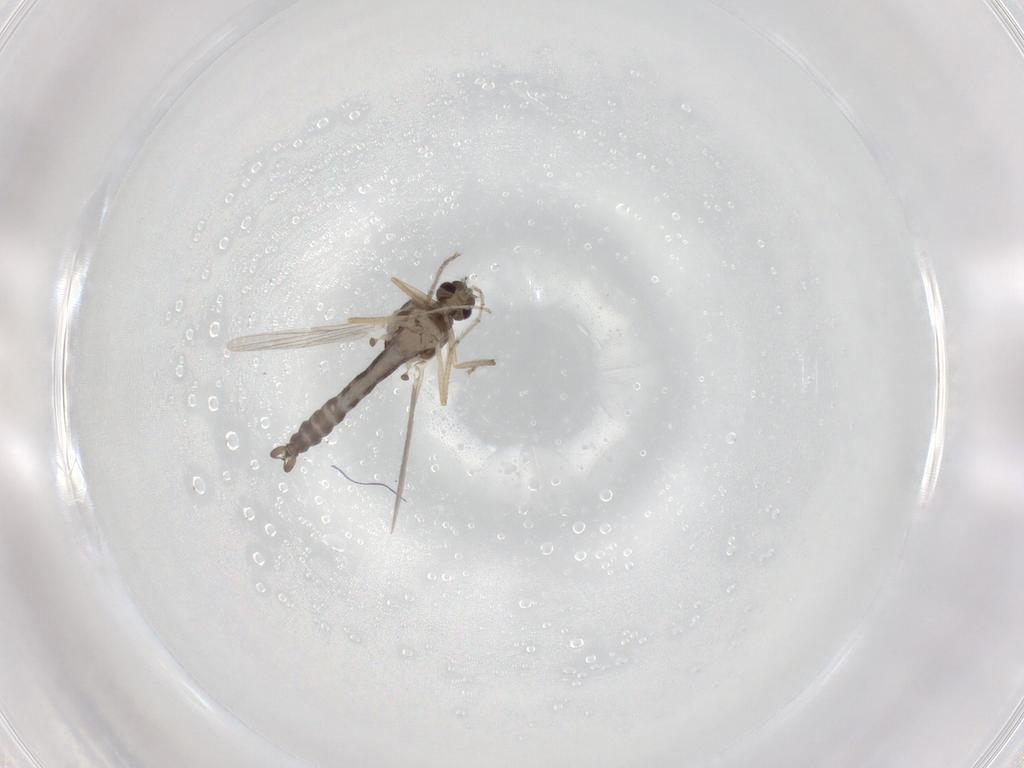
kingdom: Animalia
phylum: Arthropoda
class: Insecta
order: Diptera
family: Ceratopogonidae
